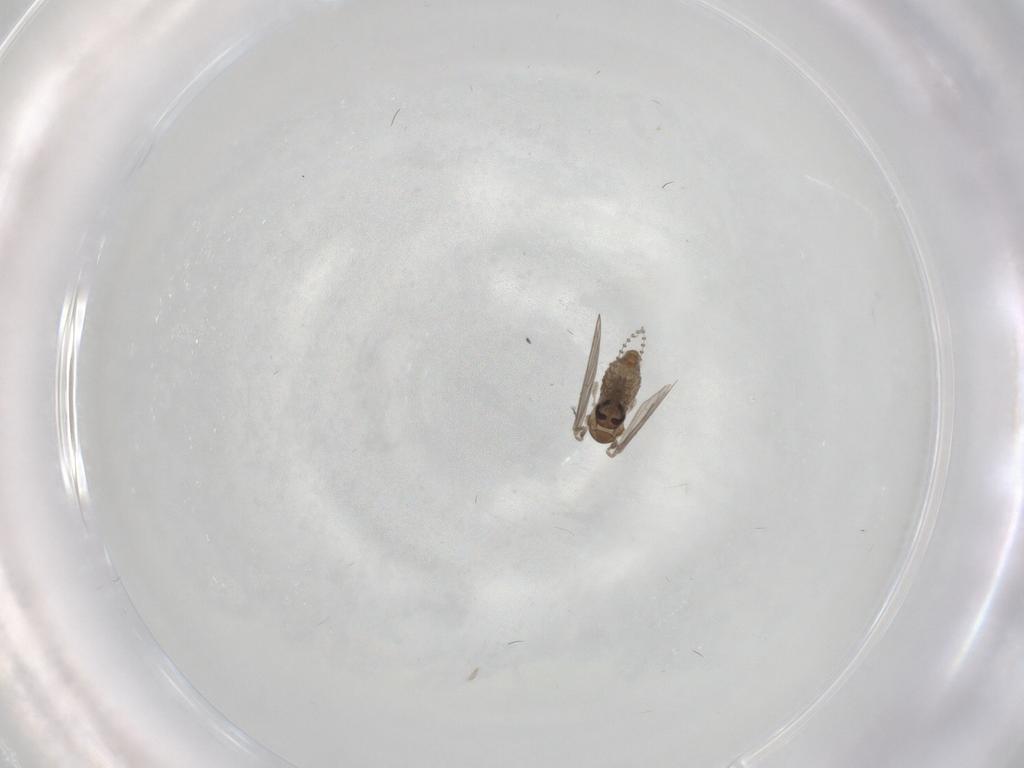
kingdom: Animalia
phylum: Arthropoda
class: Insecta
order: Diptera
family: Psychodidae
